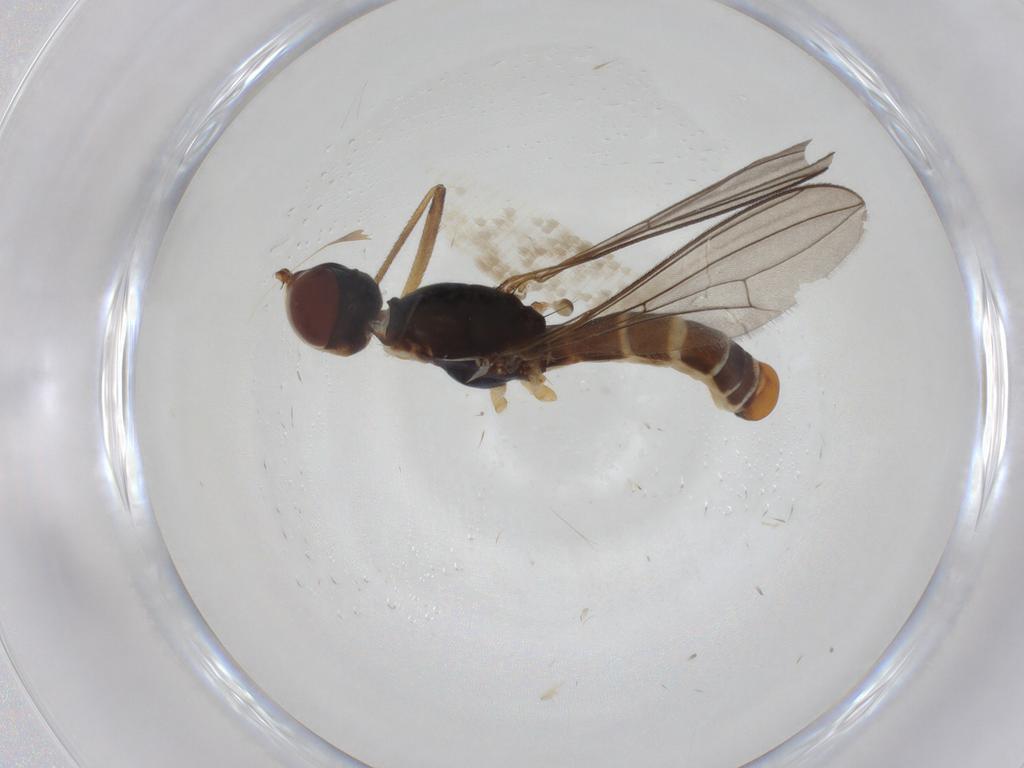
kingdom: Animalia
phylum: Arthropoda
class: Insecta
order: Diptera
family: Micropezidae
